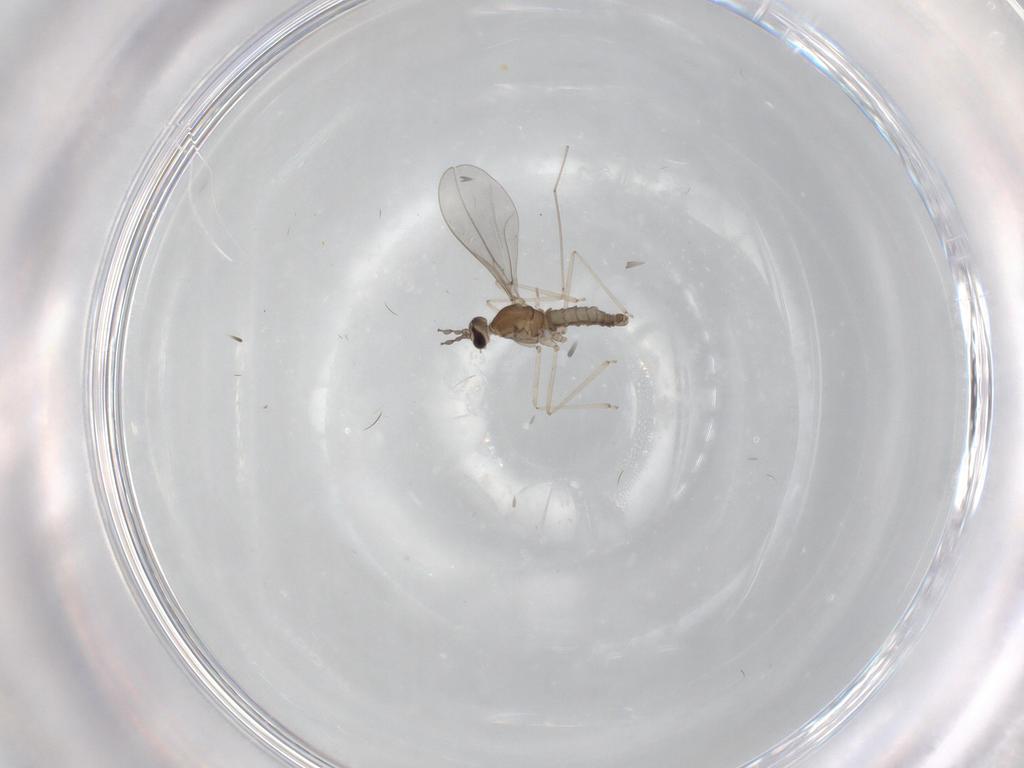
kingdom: Animalia
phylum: Arthropoda
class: Insecta
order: Diptera
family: Cecidomyiidae
